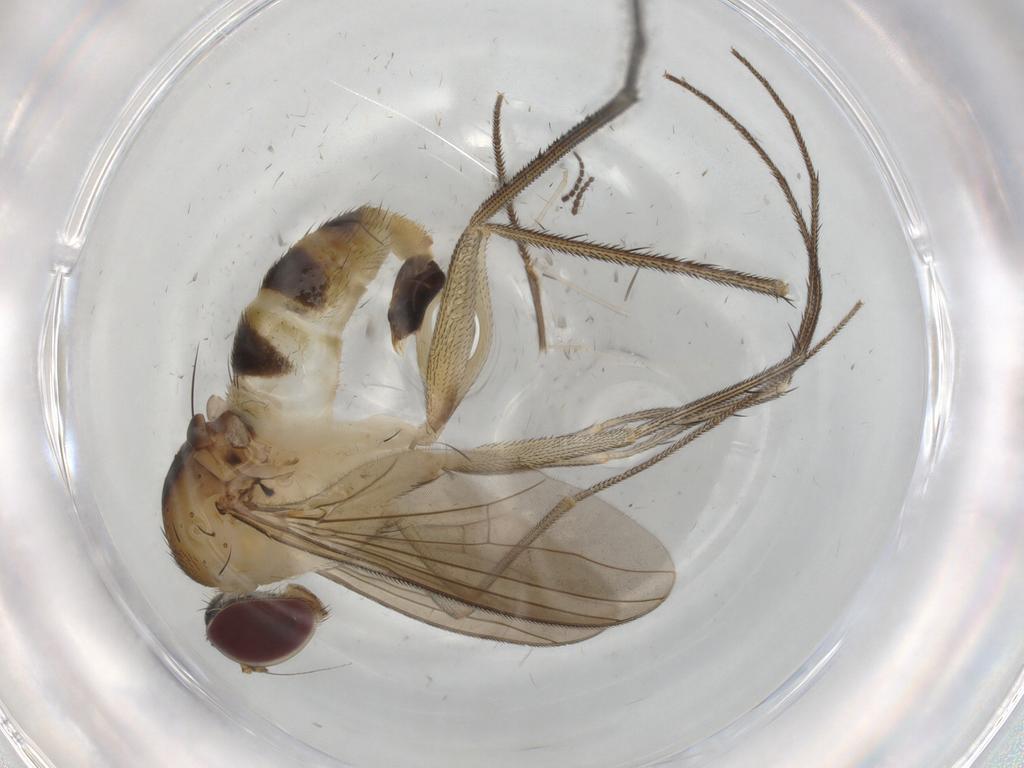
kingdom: Animalia
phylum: Arthropoda
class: Insecta
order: Diptera
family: Dolichopodidae
